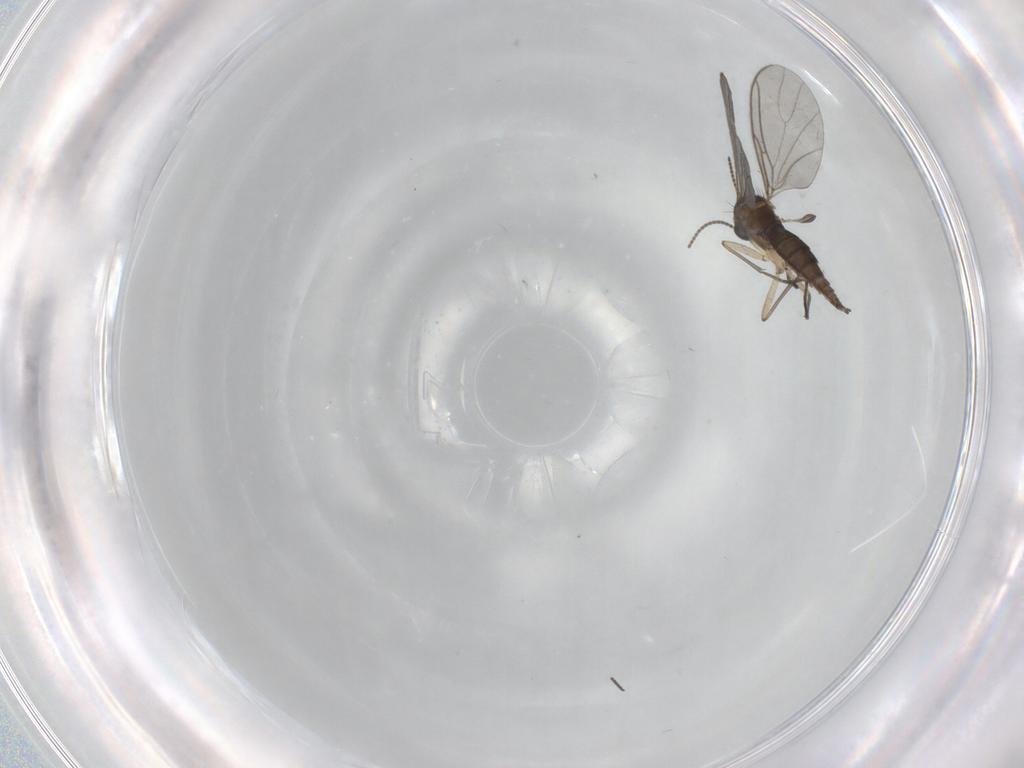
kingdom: Animalia
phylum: Arthropoda
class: Insecta
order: Diptera
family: Sciaridae
